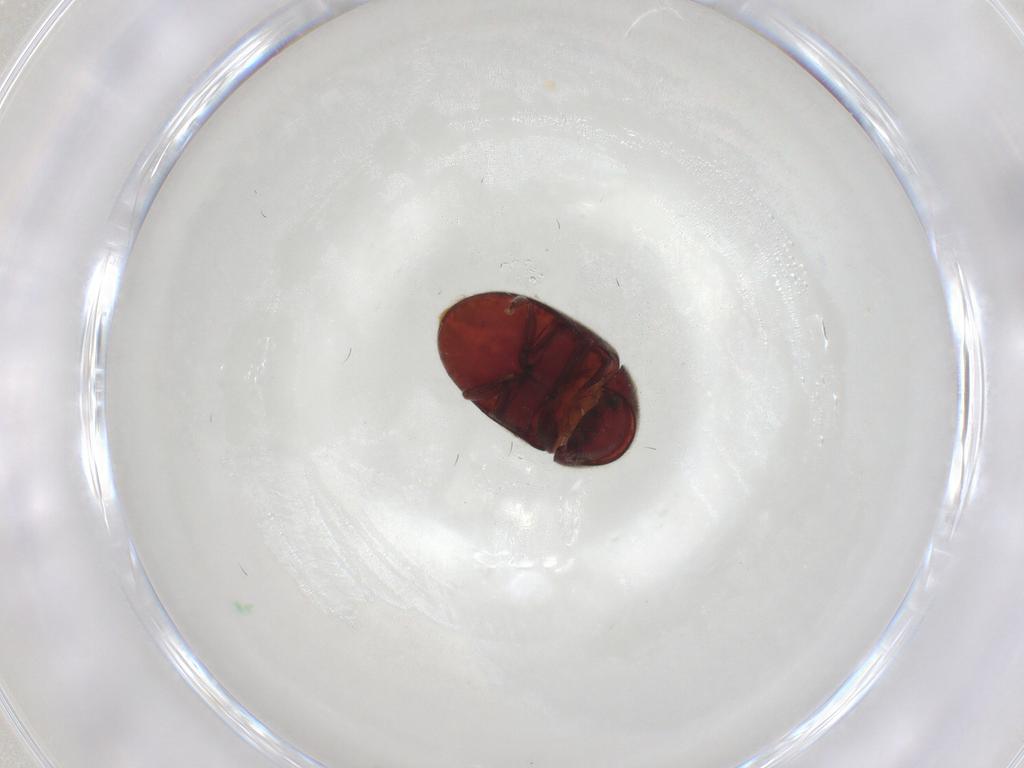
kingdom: Animalia
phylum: Arthropoda
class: Insecta
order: Coleoptera
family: Ptinidae
